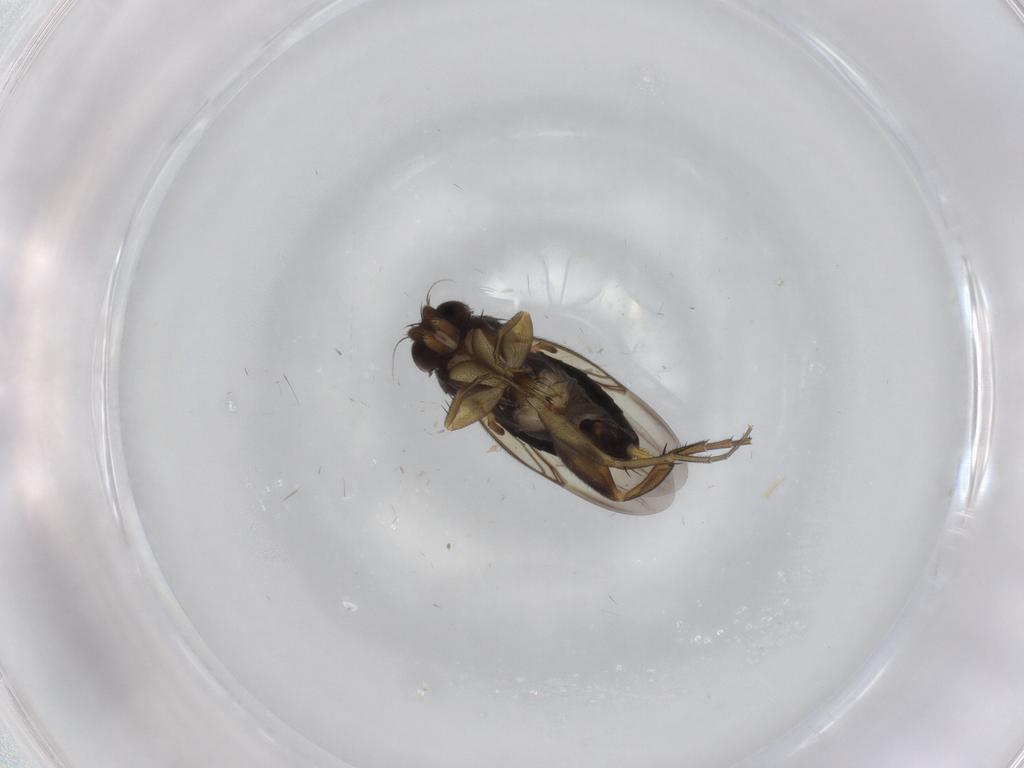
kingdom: Animalia
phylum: Arthropoda
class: Insecta
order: Diptera
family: Phoridae
